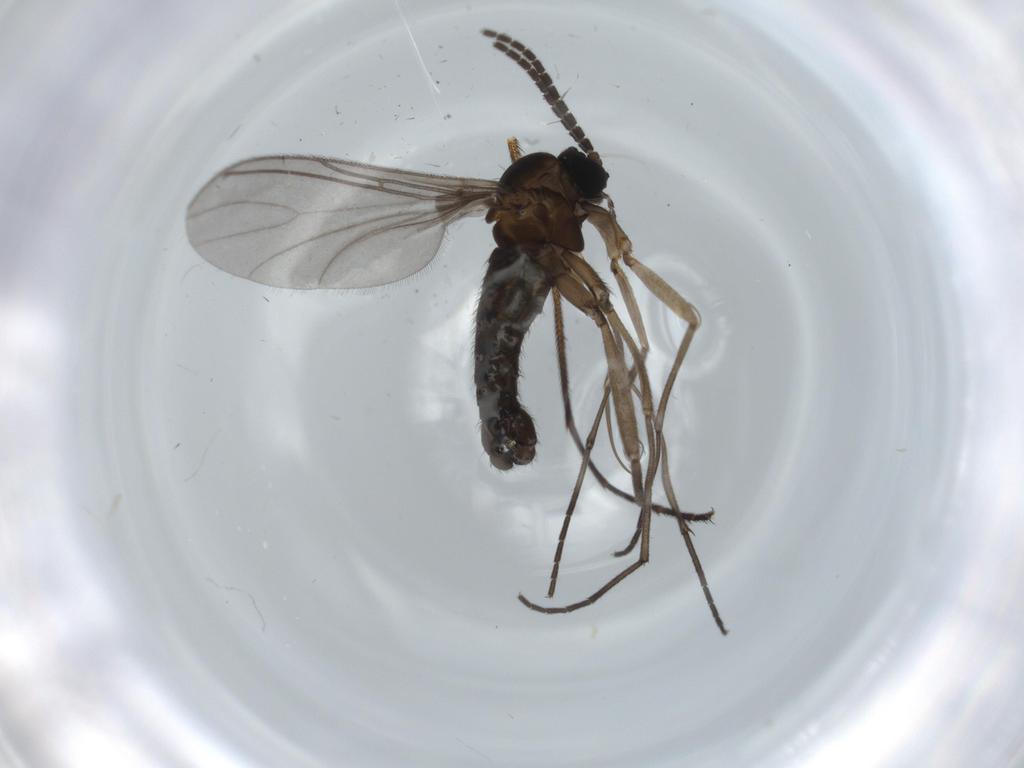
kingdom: Animalia
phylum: Arthropoda
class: Insecta
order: Diptera
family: Sciaridae
